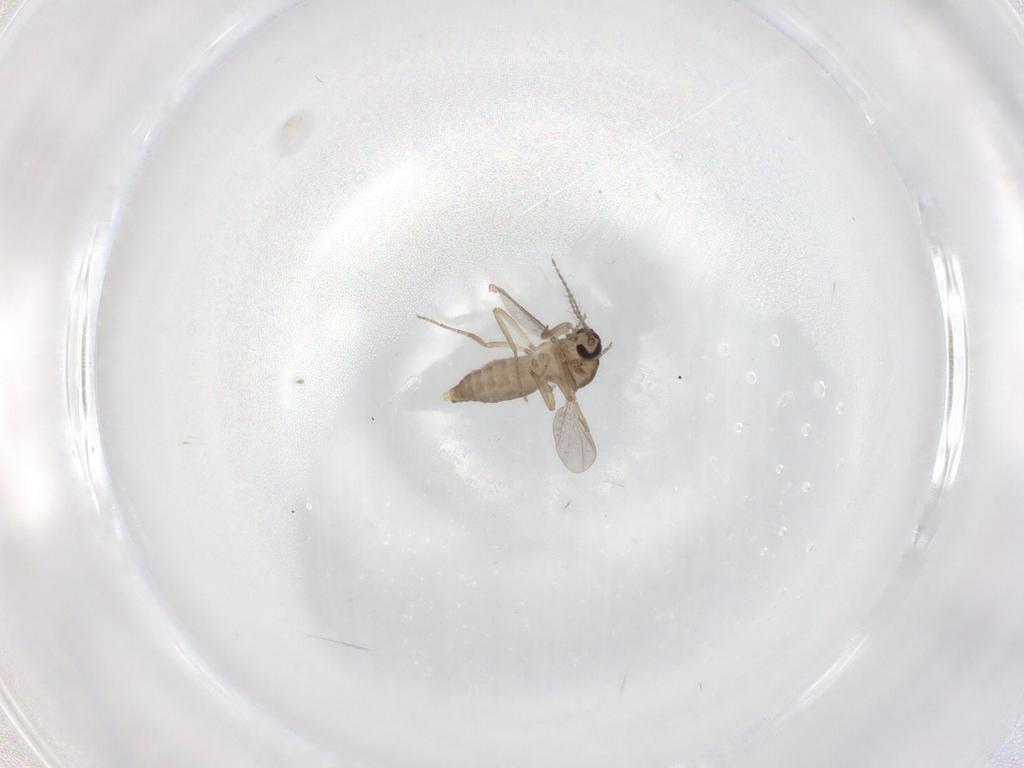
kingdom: Animalia
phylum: Arthropoda
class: Insecta
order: Diptera
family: Ceratopogonidae
